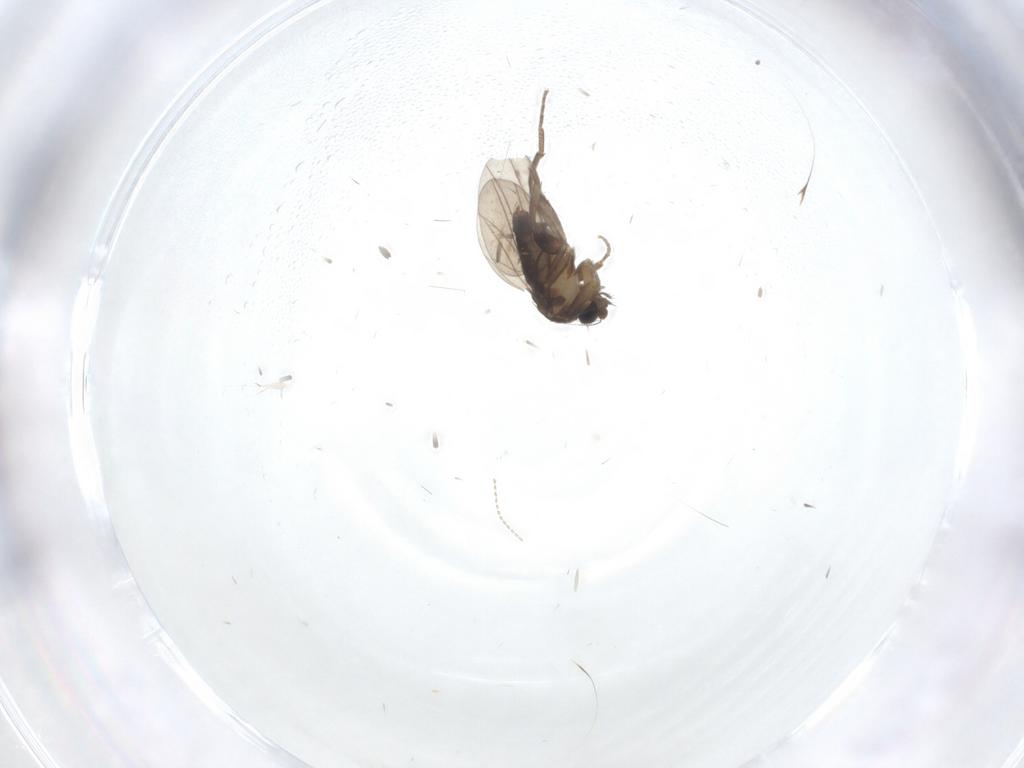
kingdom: Animalia
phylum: Arthropoda
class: Insecta
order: Diptera
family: Phoridae
